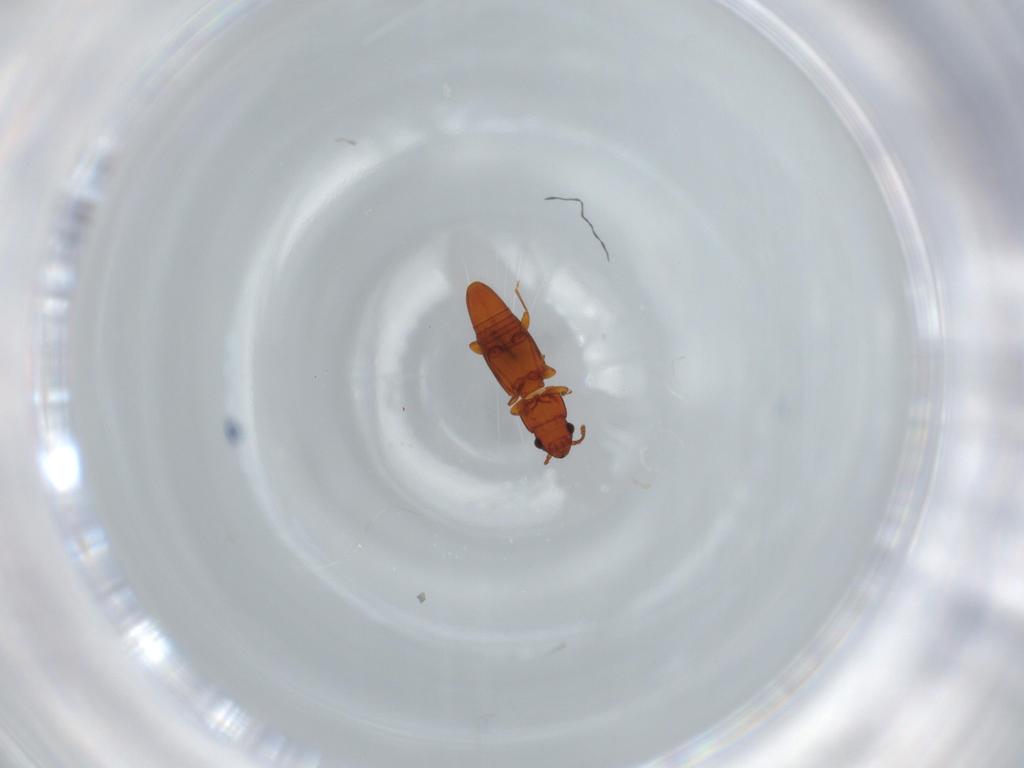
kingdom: Animalia
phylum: Arthropoda
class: Insecta
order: Coleoptera
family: Smicripidae
